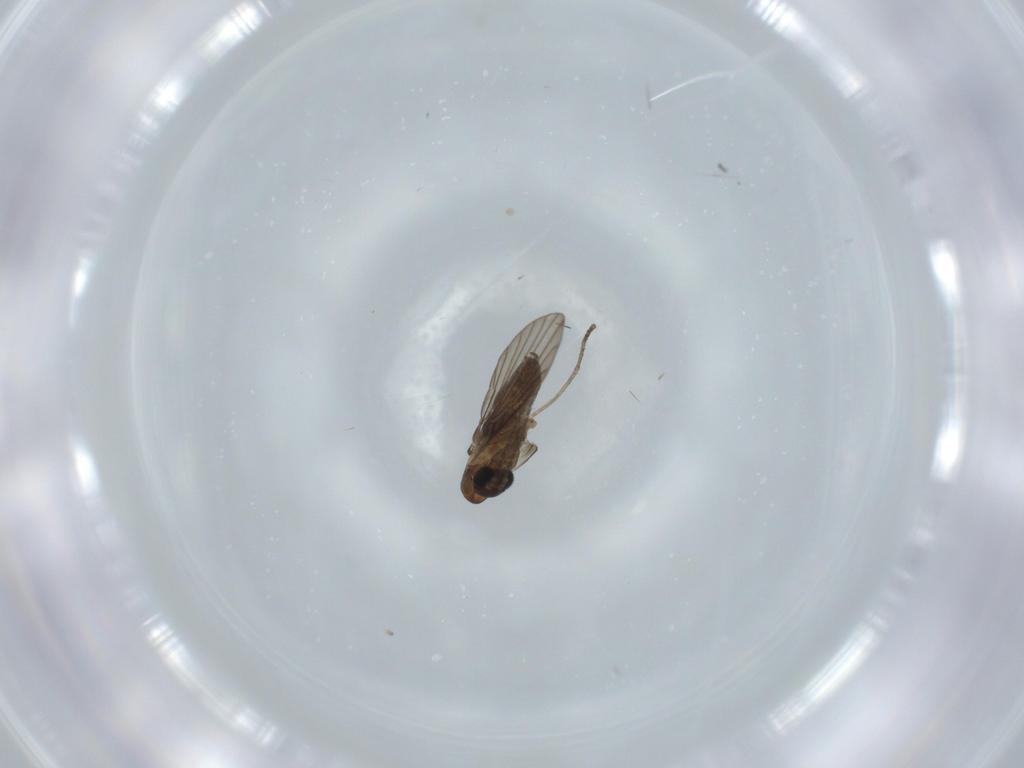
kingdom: Animalia
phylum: Arthropoda
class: Insecta
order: Diptera
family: Psychodidae
